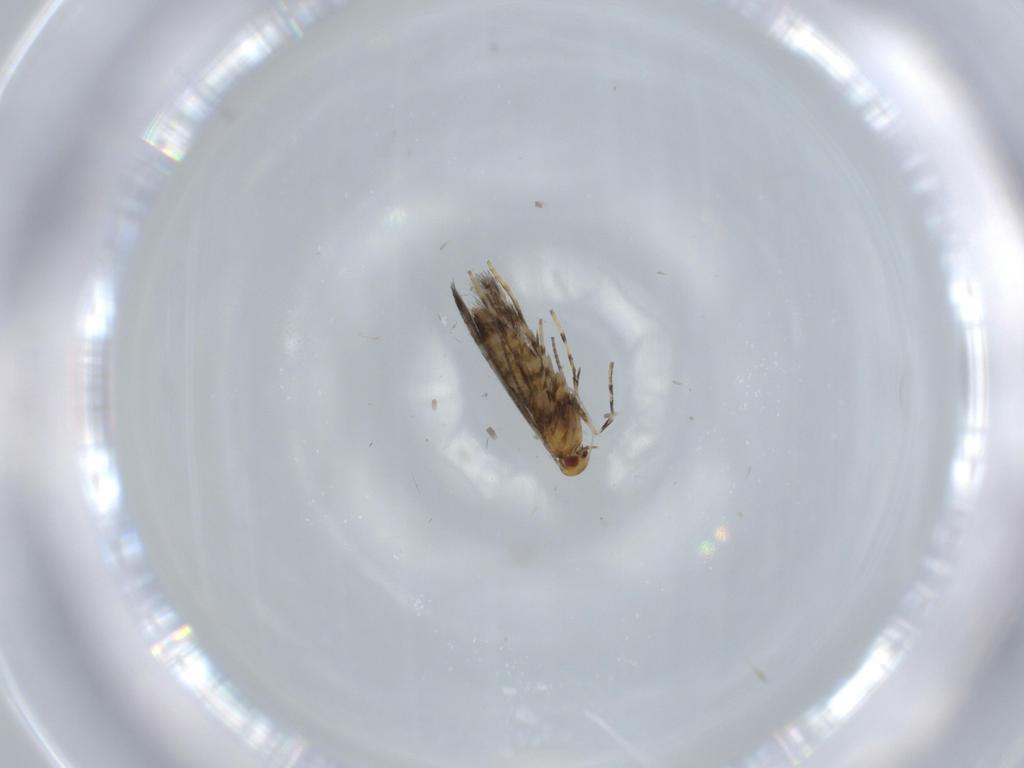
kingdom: Animalia
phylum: Arthropoda
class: Insecta
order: Lepidoptera
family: Gracillariidae
